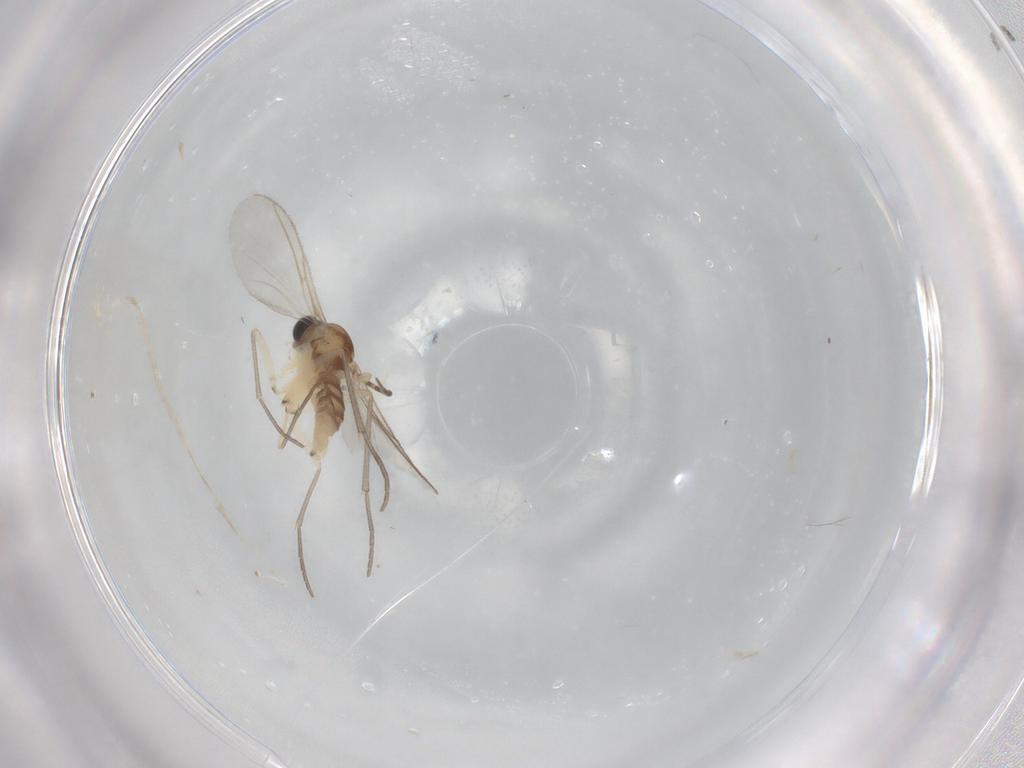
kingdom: Animalia
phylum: Arthropoda
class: Insecta
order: Diptera
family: Sciaridae
